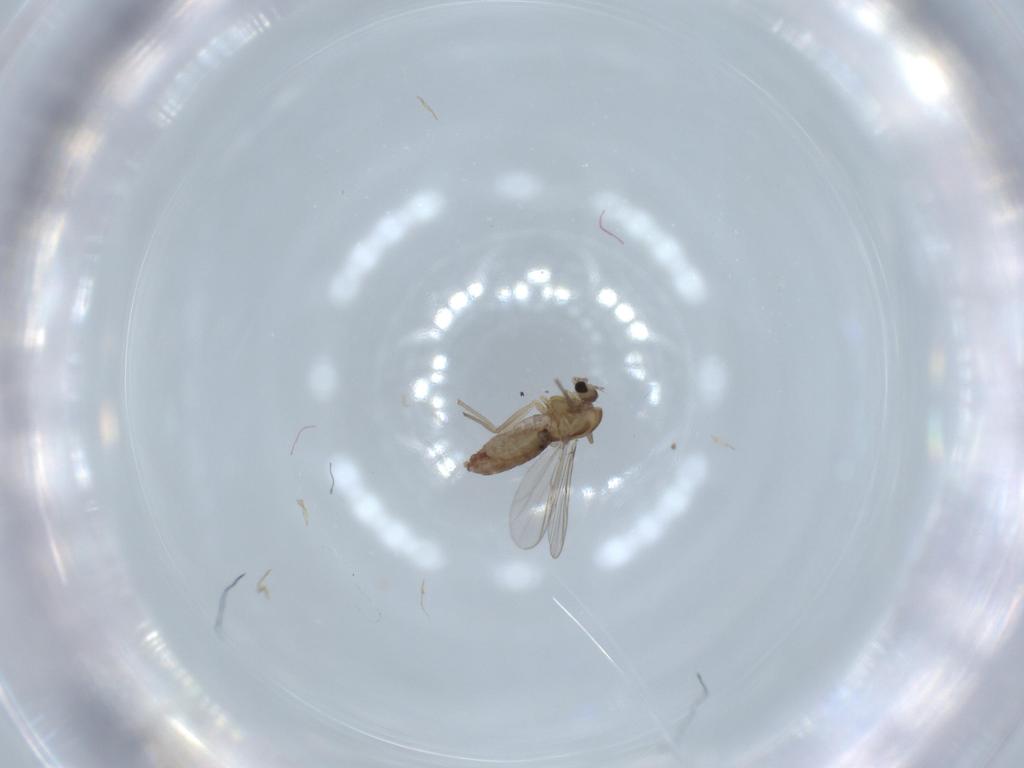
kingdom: Animalia
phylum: Arthropoda
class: Insecta
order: Diptera
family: Chironomidae
